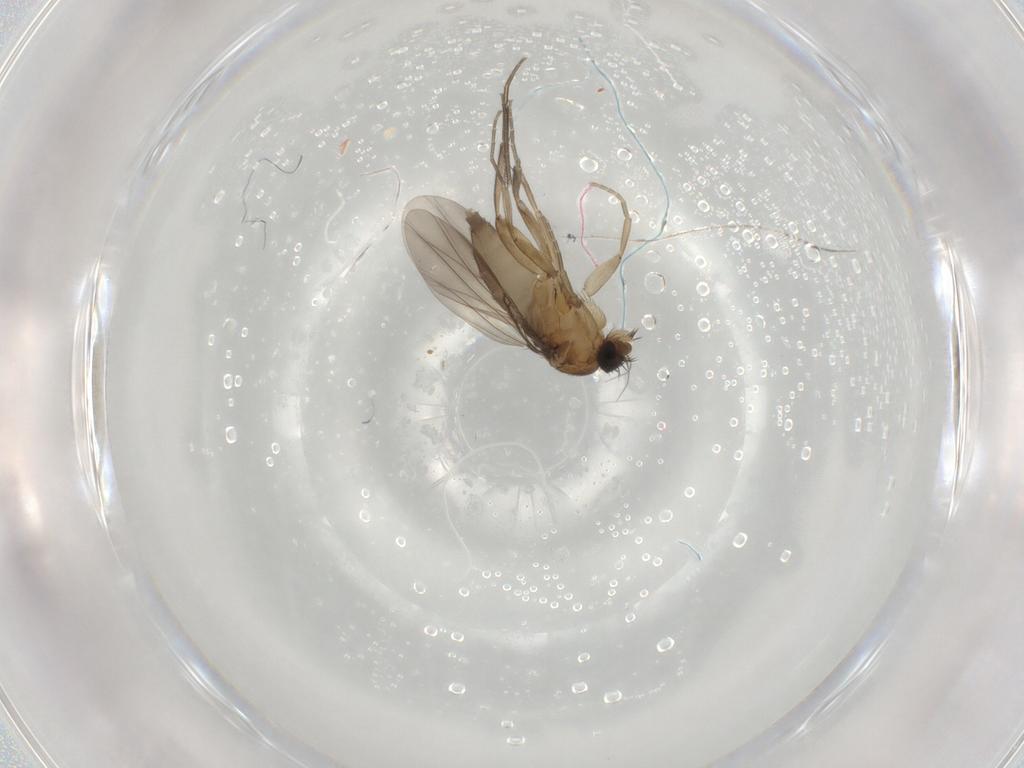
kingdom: Animalia
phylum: Arthropoda
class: Insecta
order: Diptera
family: Phoridae
